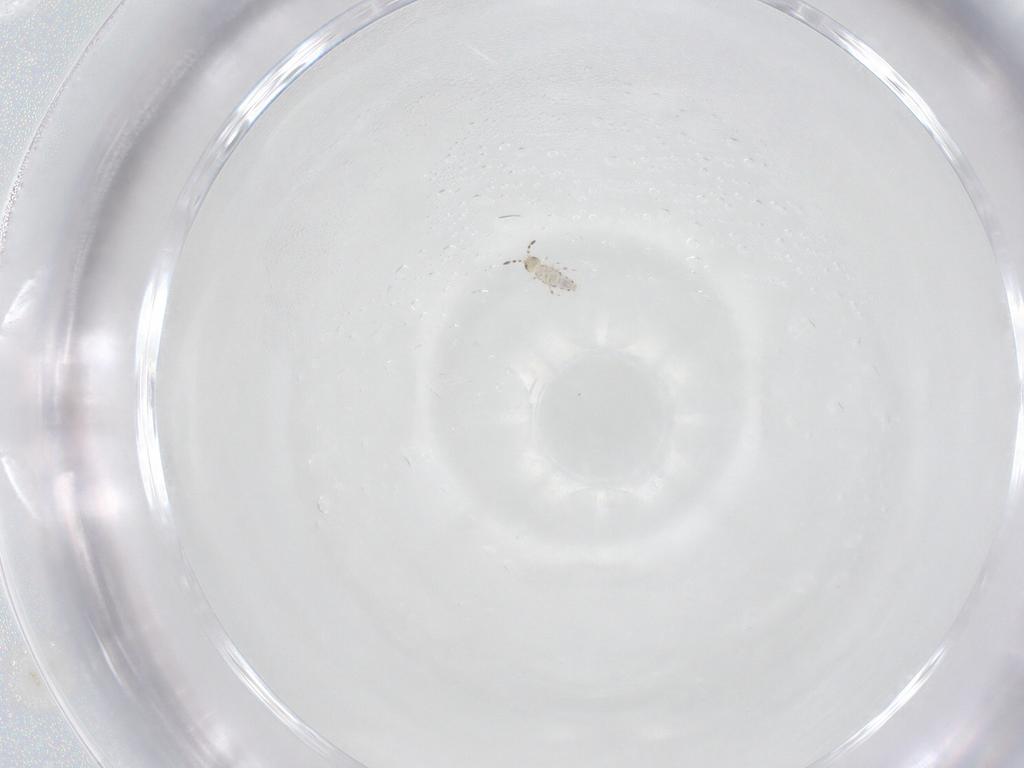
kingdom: Animalia
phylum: Arthropoda
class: Collembola
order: Entomobryomorpha
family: Isotomidae
